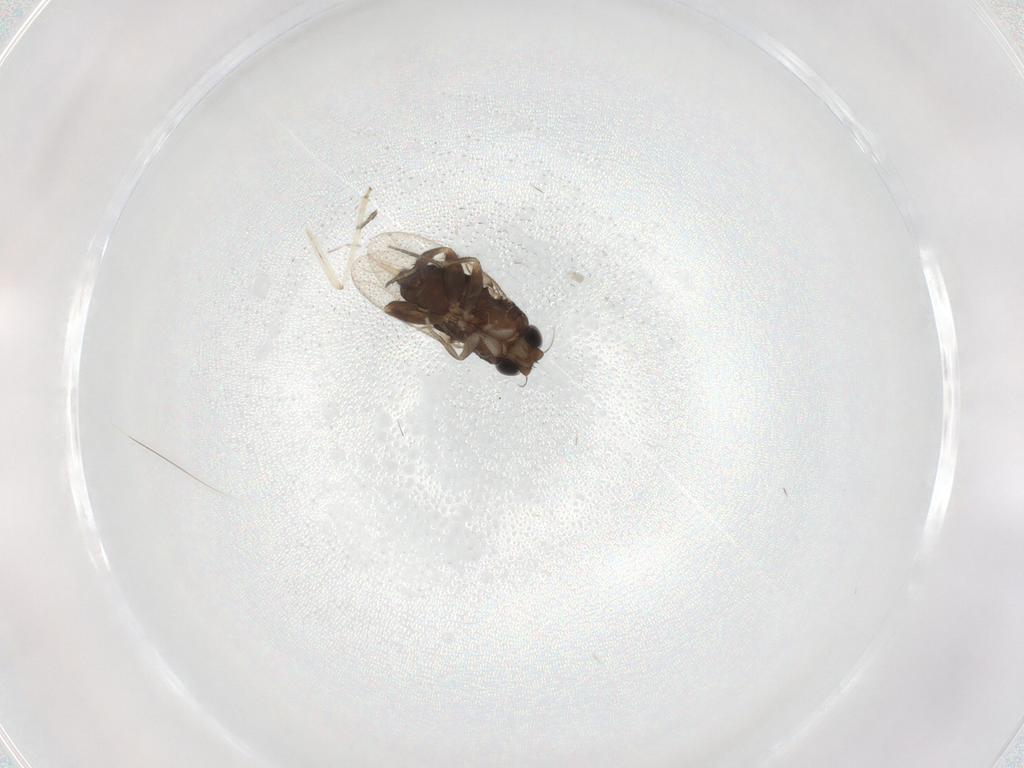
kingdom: Animalia
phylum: Arthropoda
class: Insecta
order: Diptera
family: Phoridae
